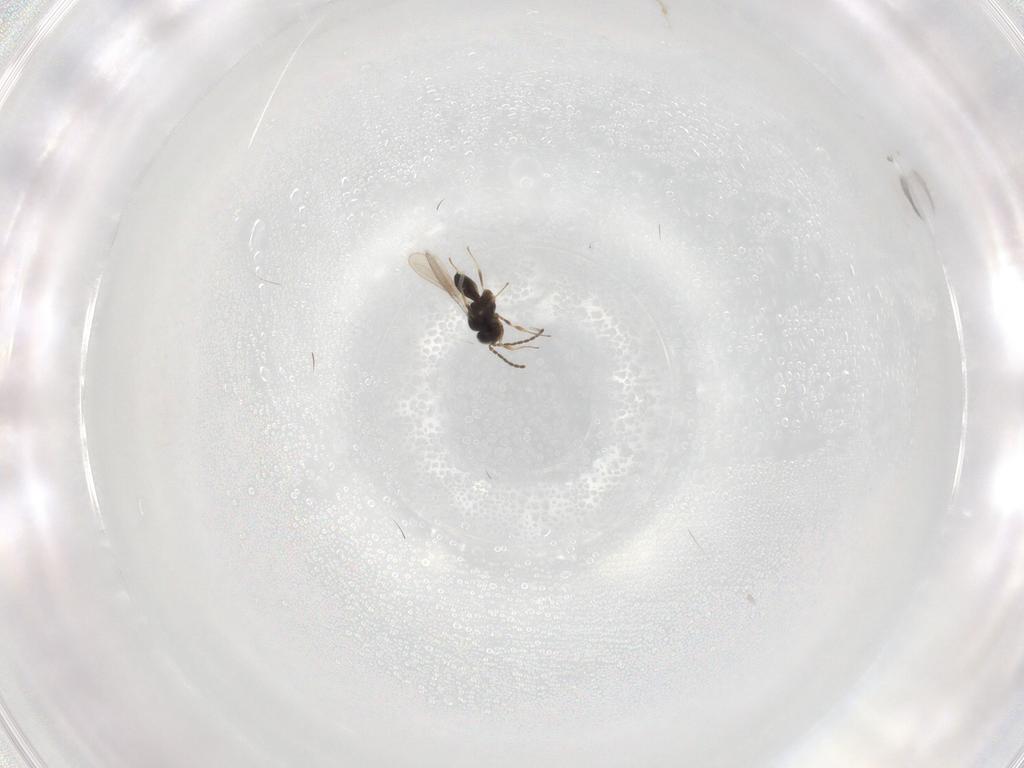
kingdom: Animalia
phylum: Arthropoda
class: Insecta
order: Hymenoptera
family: Scelionidae
